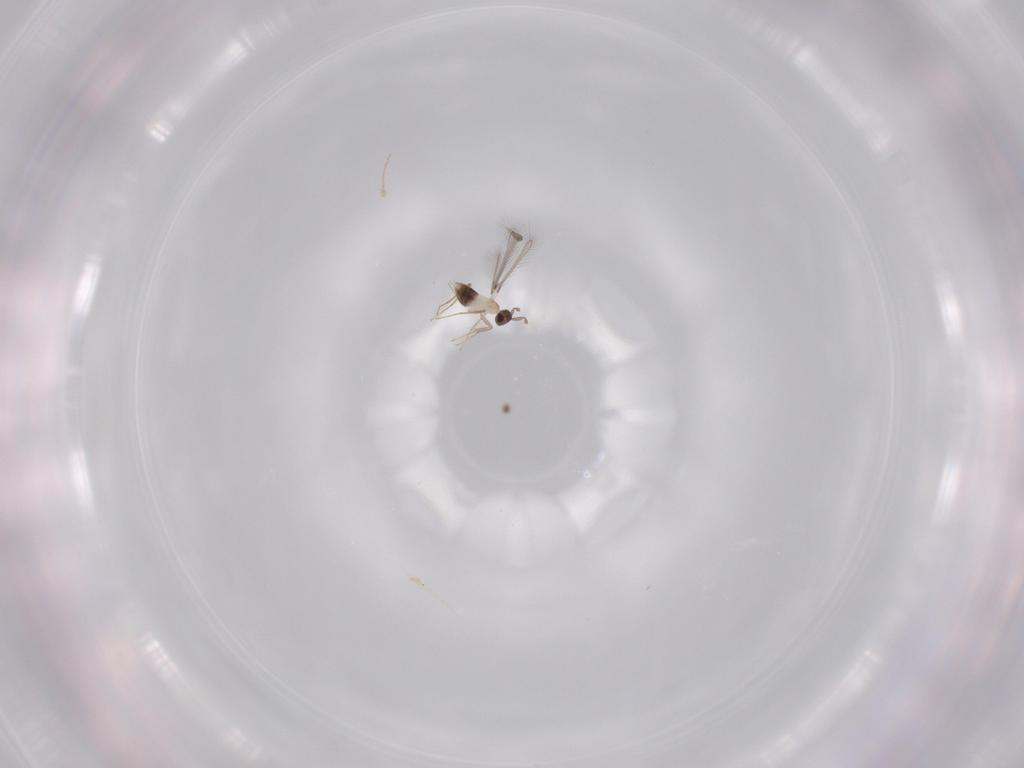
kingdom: Animalia
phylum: Arthropoda
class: Insecta
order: Hymenoptera
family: Mymaridae
